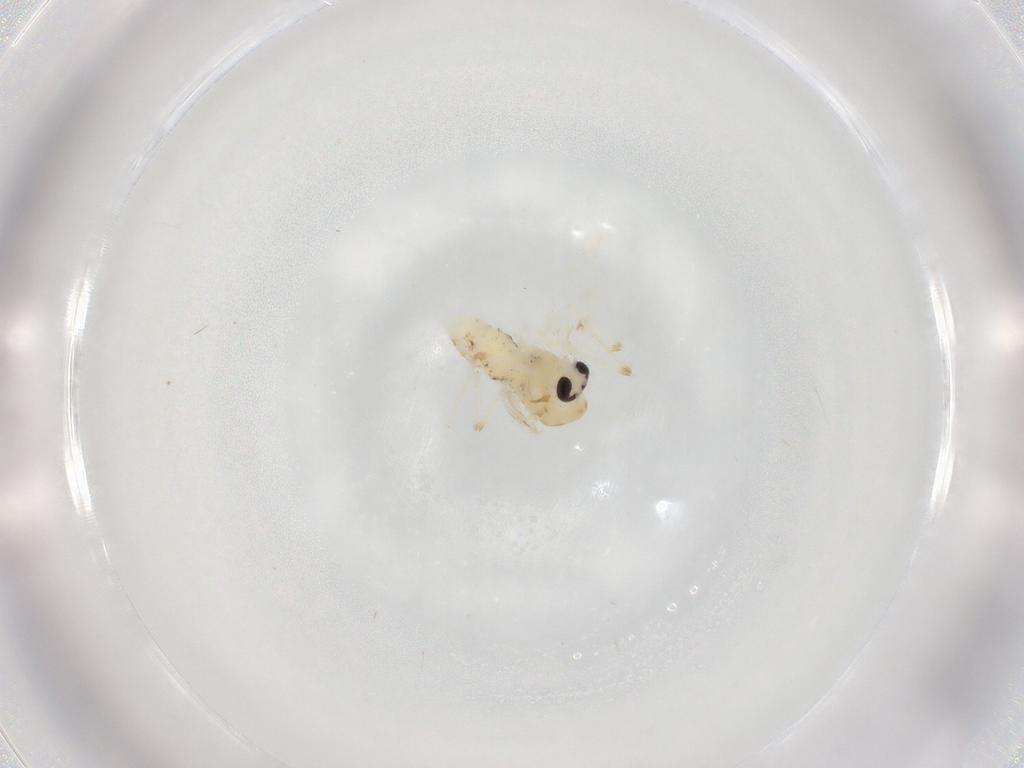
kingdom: Animalia
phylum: Arthropoda
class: Insecta
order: Diptera
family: Chironomidae
